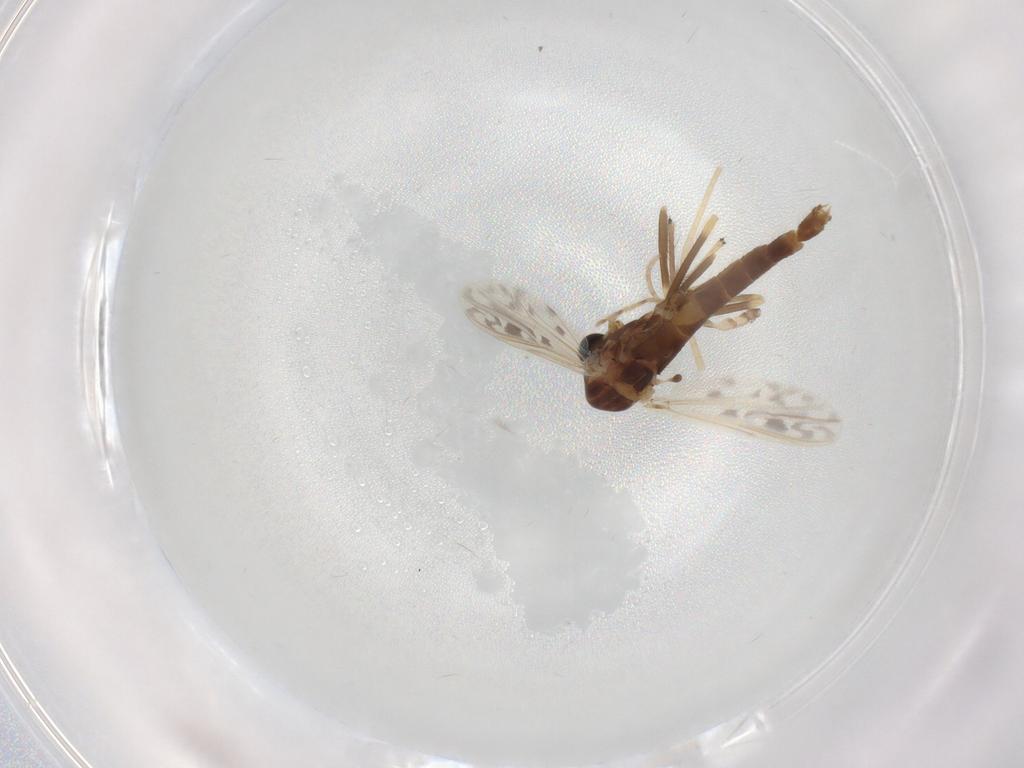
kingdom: Animalia
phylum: Arthropoda
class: Insecta
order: Diptera
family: Chironomidae
